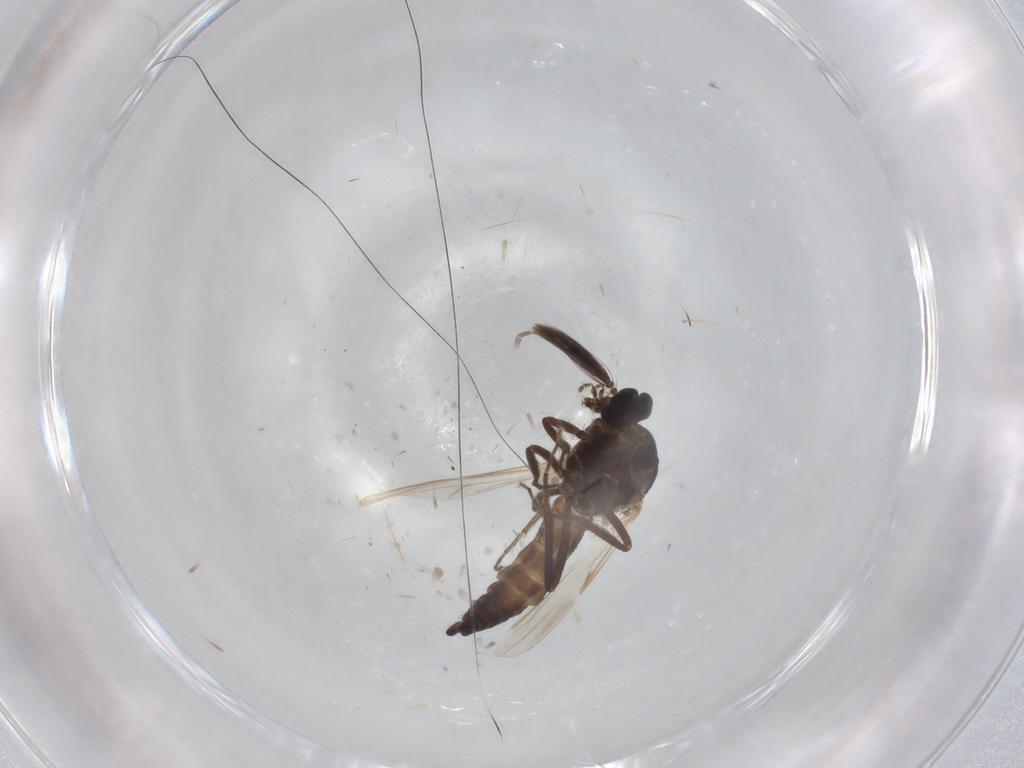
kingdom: Animalia
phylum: Arthropoda
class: Insecta
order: Diptera
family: Ceratopogonidae
